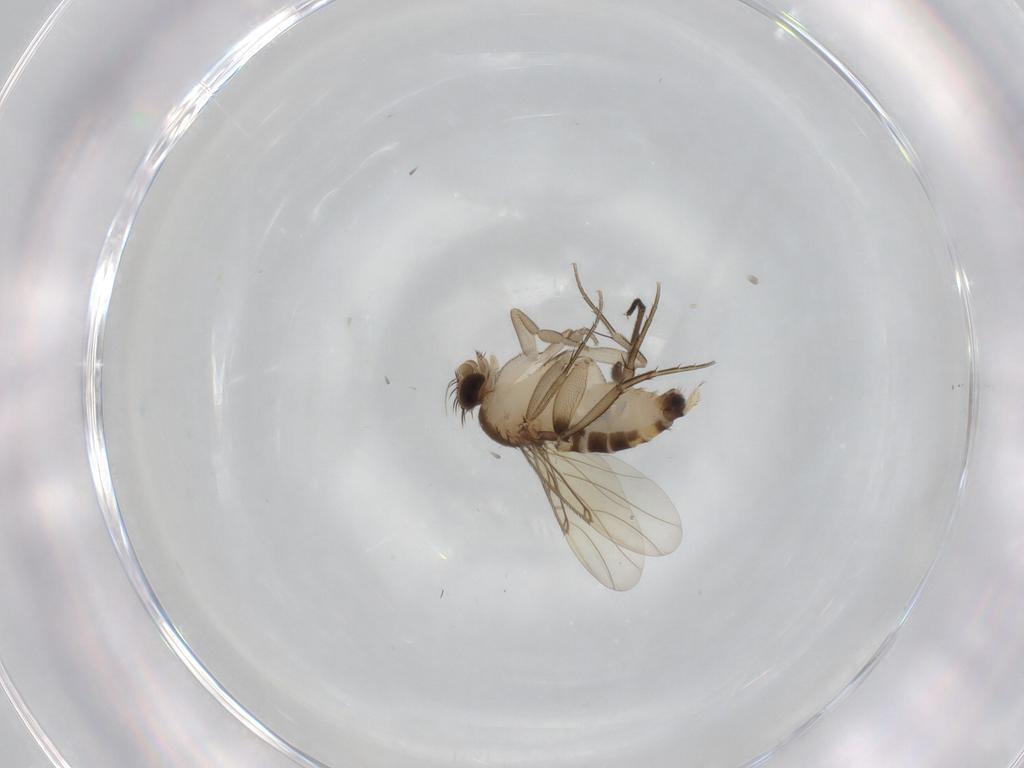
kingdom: Animalia
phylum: Arthropoda
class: Insecta
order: Diptera
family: Phoridae
